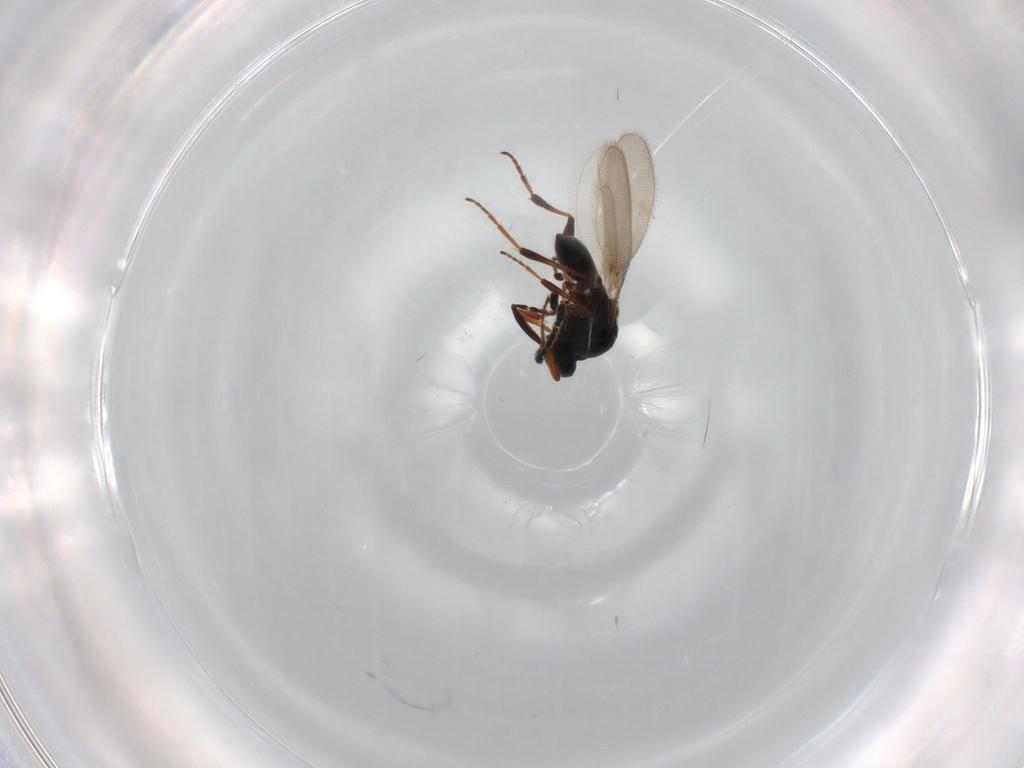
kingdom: Animalia
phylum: Arthropoda
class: Insecta
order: Hymenoptera
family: Platygastridae
